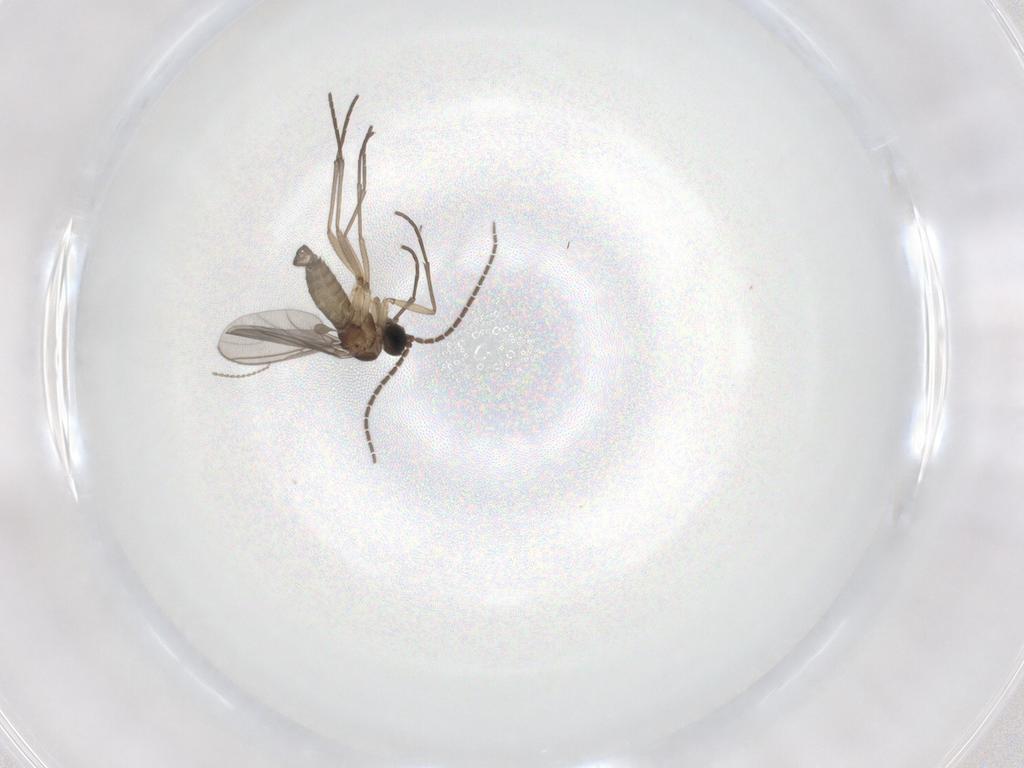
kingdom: Animalia
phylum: Arthropoda
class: Insecta
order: Diptera
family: Sciaridae
